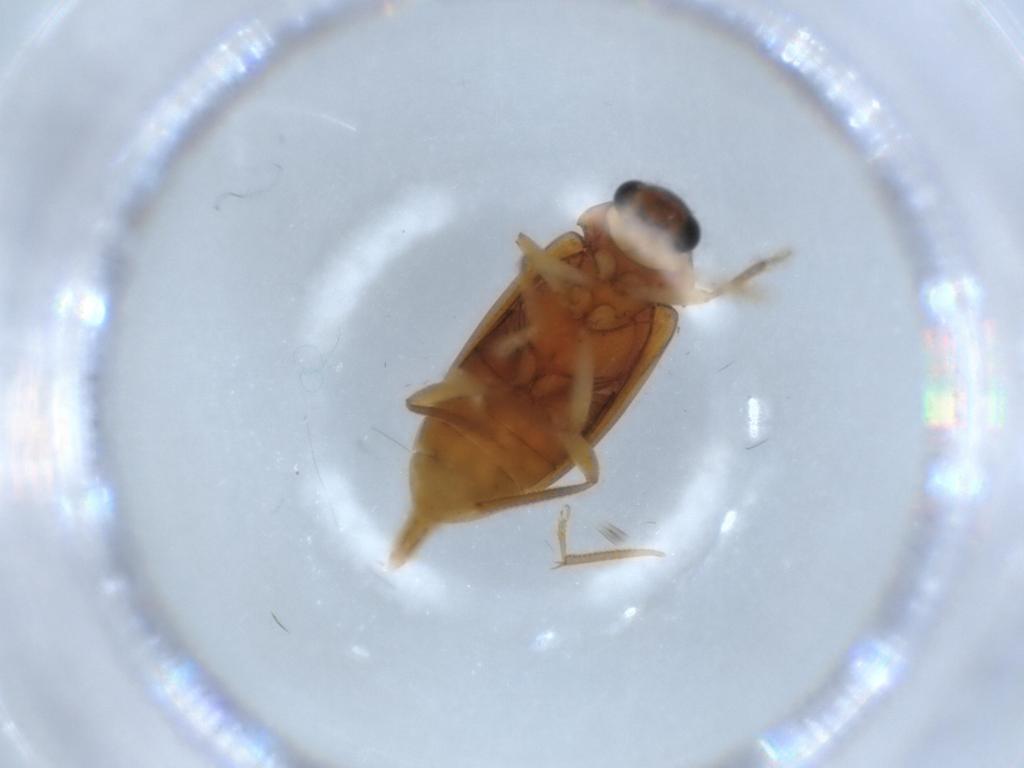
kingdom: Animalia
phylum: Arthropoda
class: Insecta
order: Coleoptera
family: Ptilodactylidae
